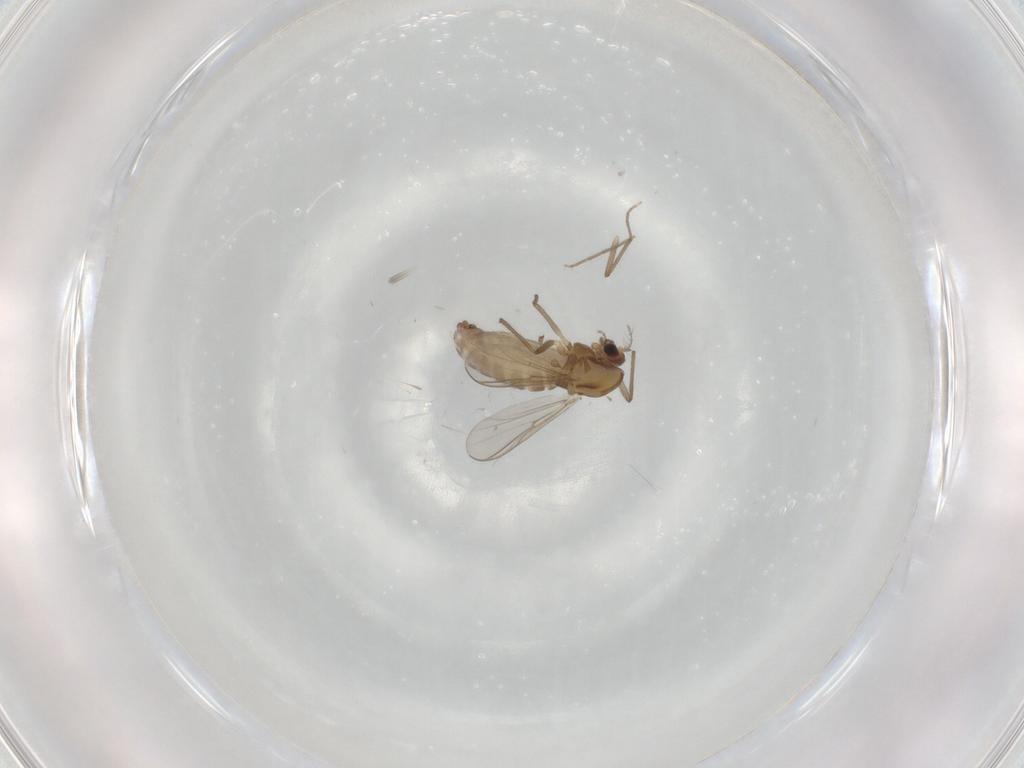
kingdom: Animalia
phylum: Arthropoda
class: Insecta
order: Diptera
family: Chironomidae
